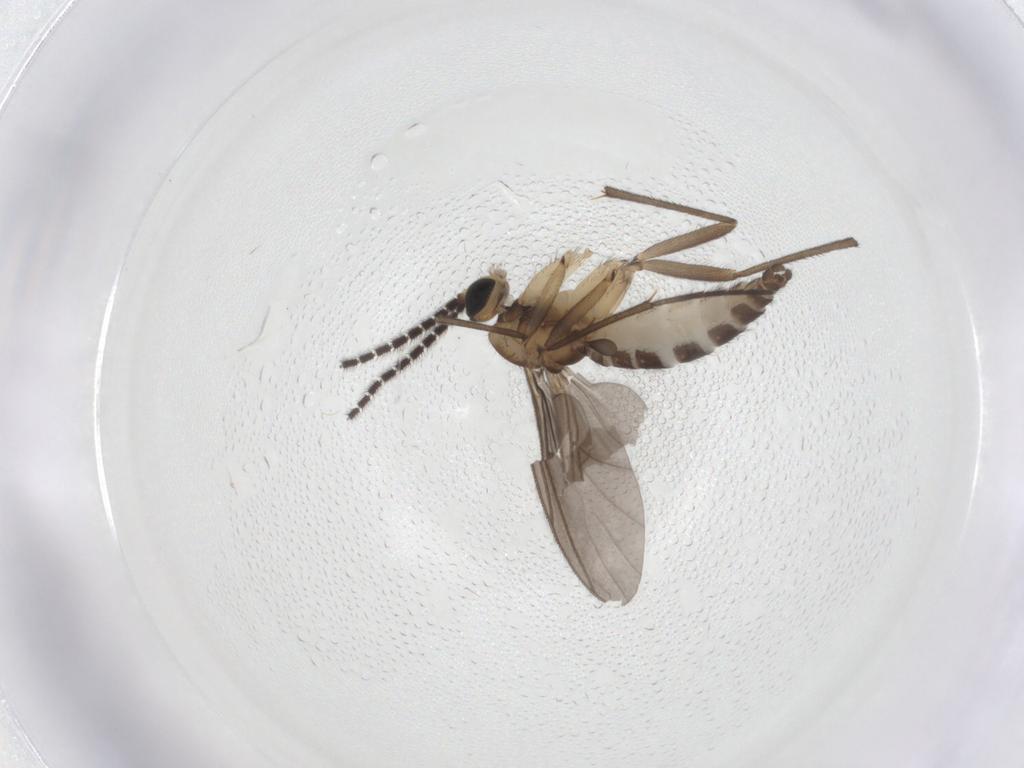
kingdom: Animalia
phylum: Arthropoda
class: Insecta
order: Diptera
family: Sciaridae
